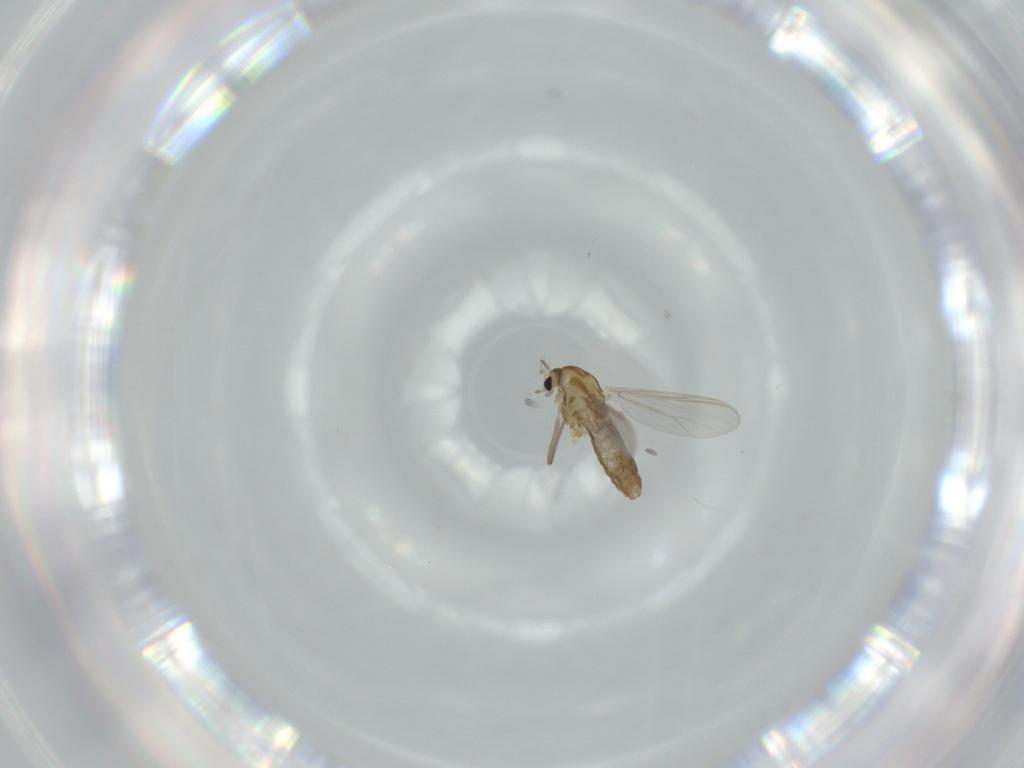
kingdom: Animalia
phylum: Arthropoda
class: Insecta
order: Diptera
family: Chironomidae
